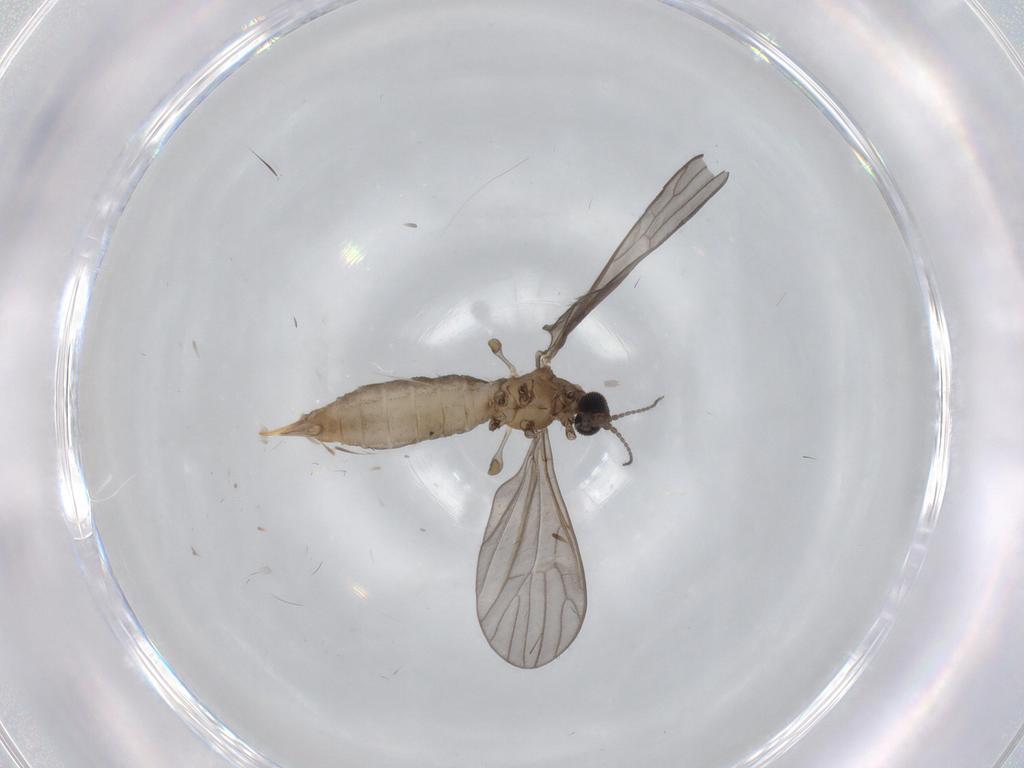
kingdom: Animalia
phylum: Arthropoda
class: Insecta
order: Diptera
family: Limoniidae
